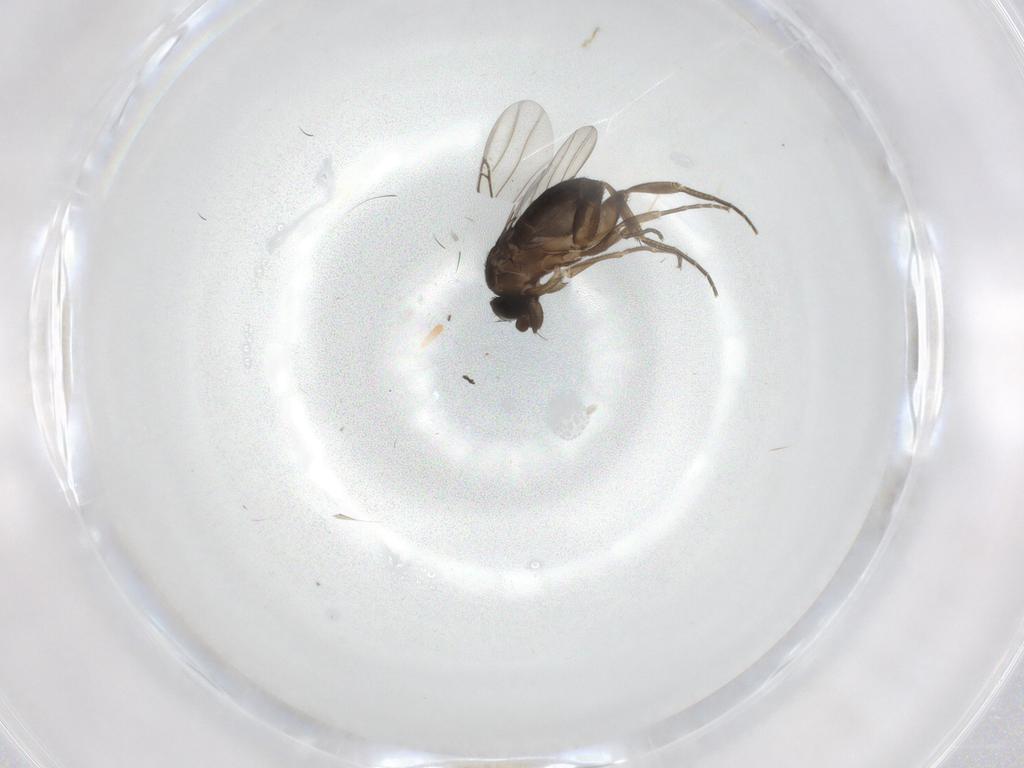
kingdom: Animalia
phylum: Arthropoda
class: Insecta
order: Diptera
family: Phoridae
